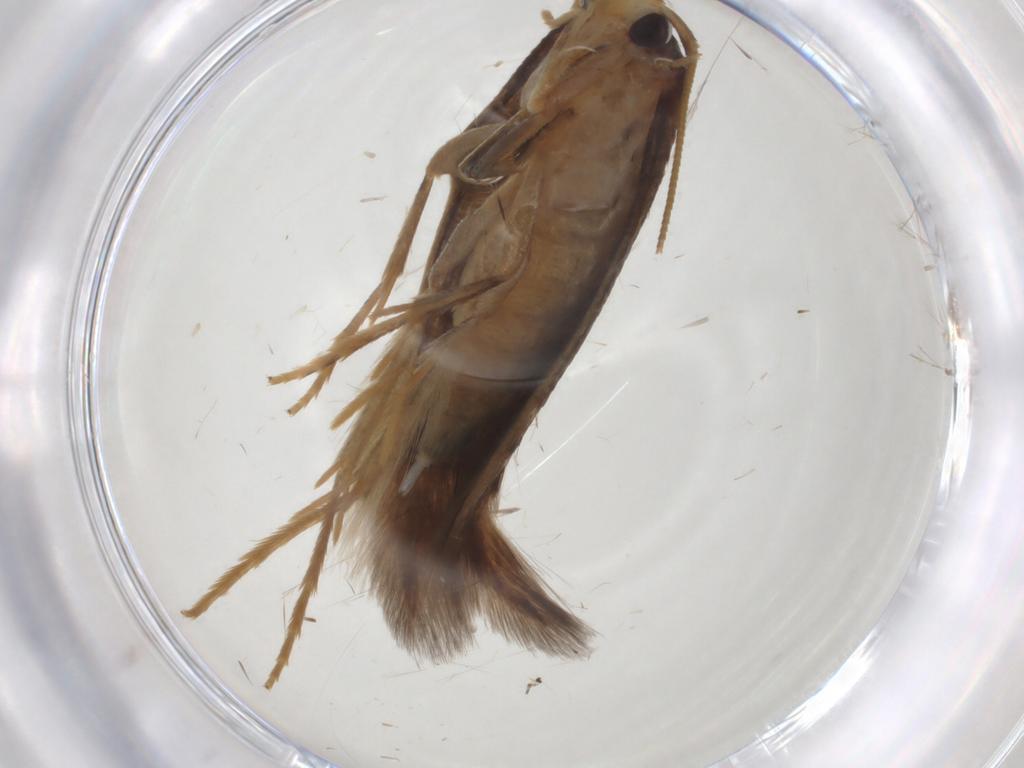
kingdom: Animalia
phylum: Arthropoda
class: Insecta
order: Lepidoptera
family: Tineidae
